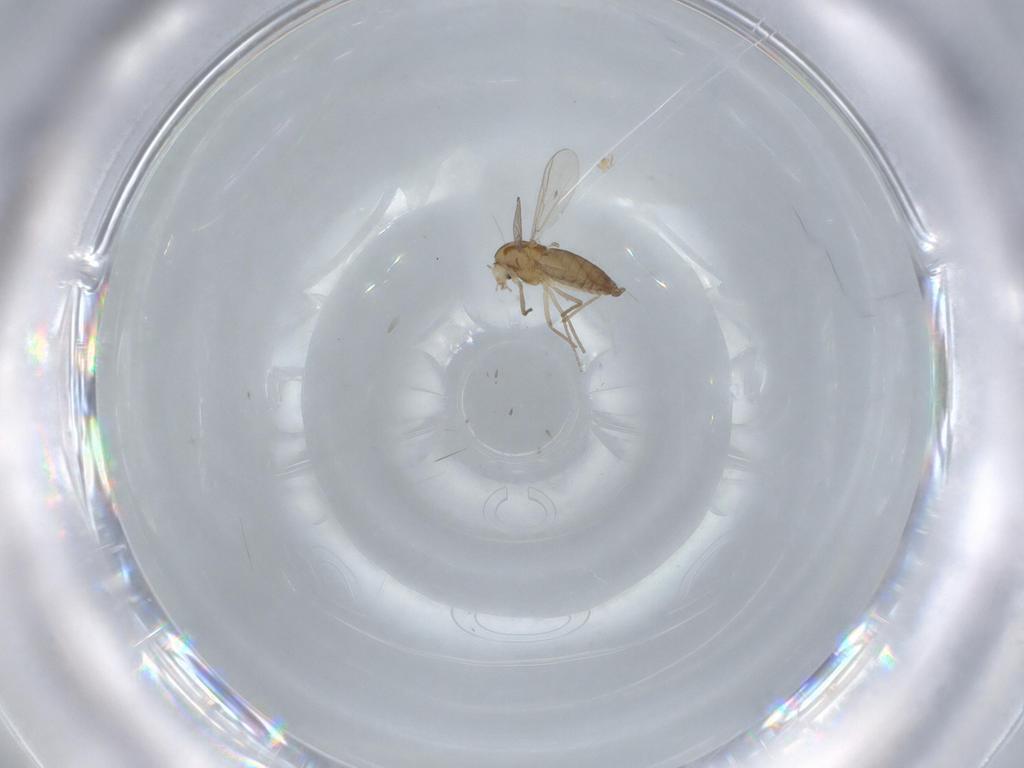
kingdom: Animalia
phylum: Arthropoda
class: Insecta
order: Diptera
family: Chironomidae
